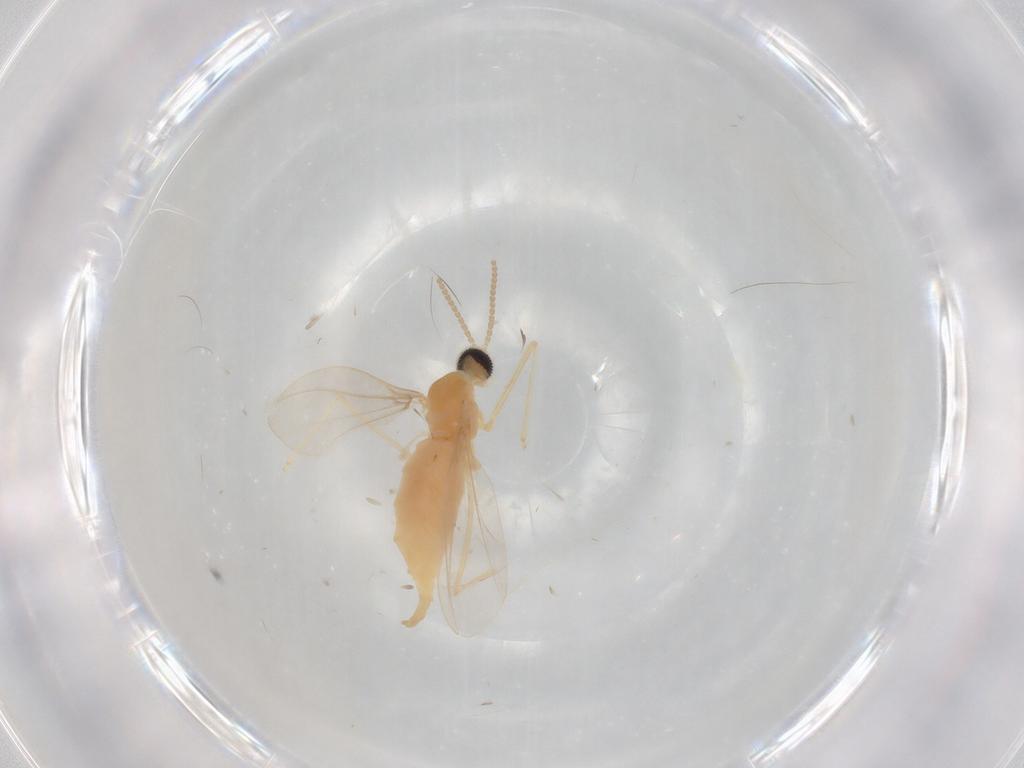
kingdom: Animalia
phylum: Arthropoda
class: Insecta
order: Diptera
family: Cecidomyiidae
